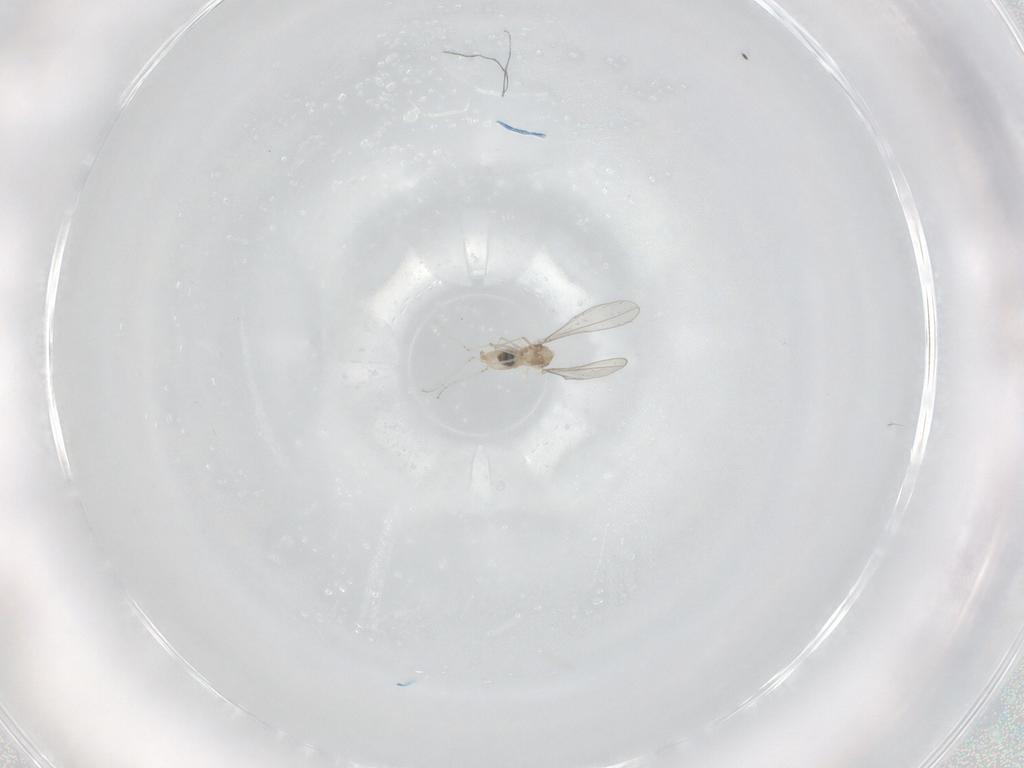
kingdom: Animalia
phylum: Arthropoda
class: Insecta
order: Diptera
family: Cecidomyiidae
